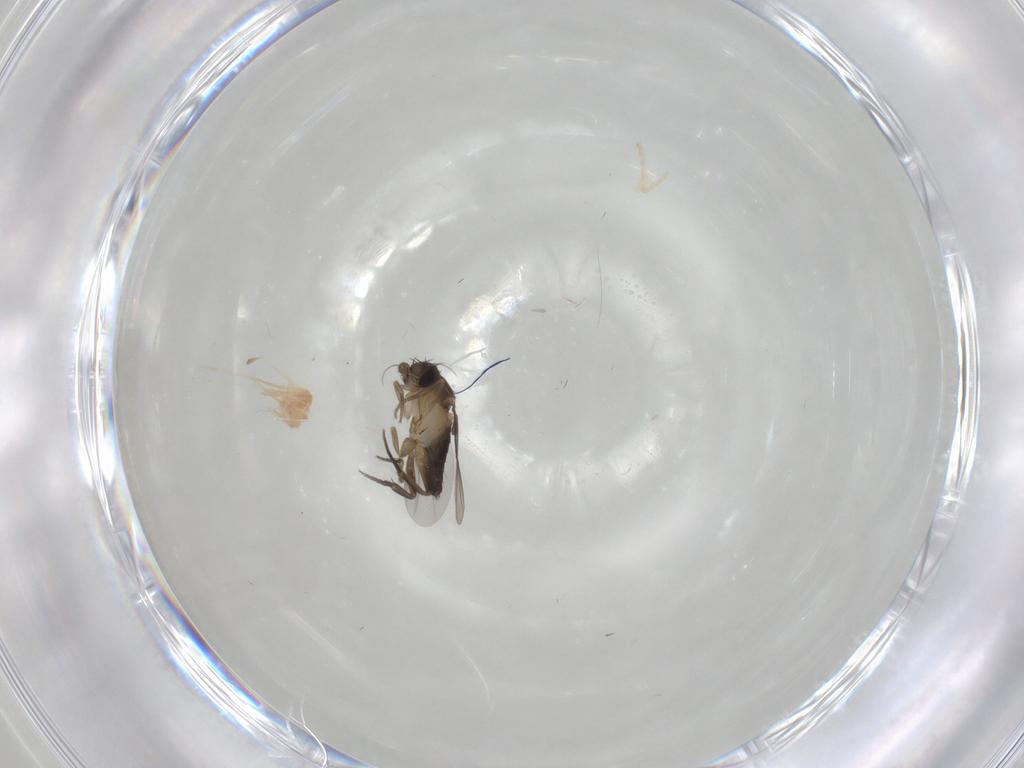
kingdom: Animalia
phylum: Arthropoda
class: Insecta
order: Diptera
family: Phoridae
